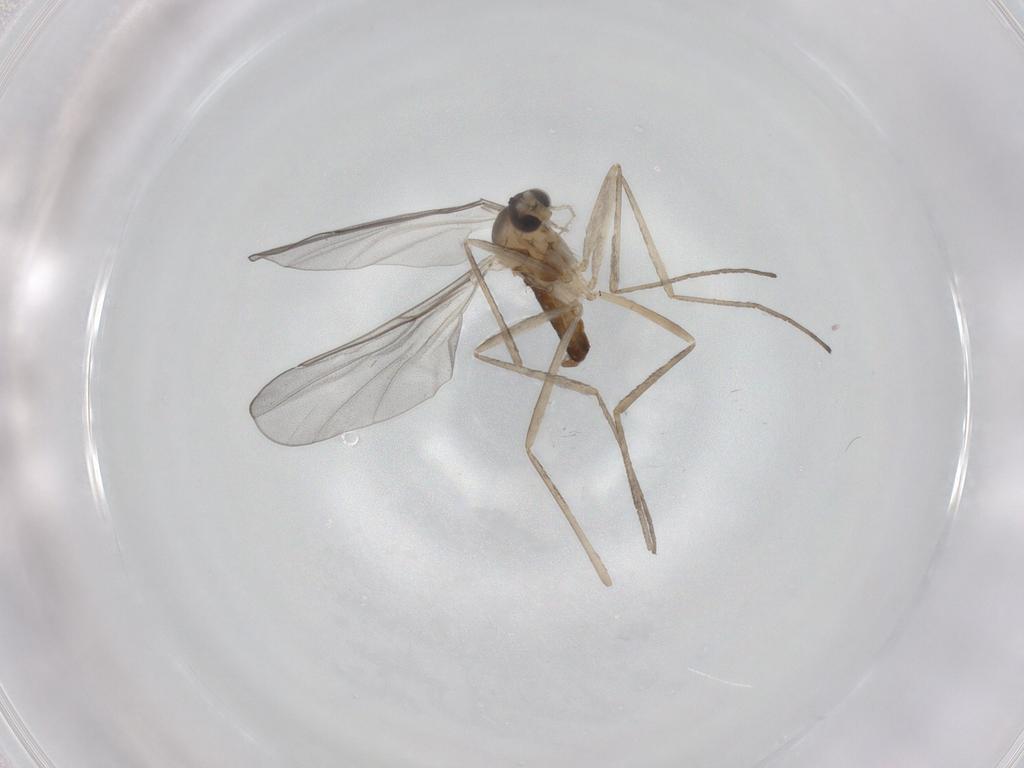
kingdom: Animalia
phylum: Arthropoda
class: Insecta
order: Diptera
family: Cecidomyiidae
